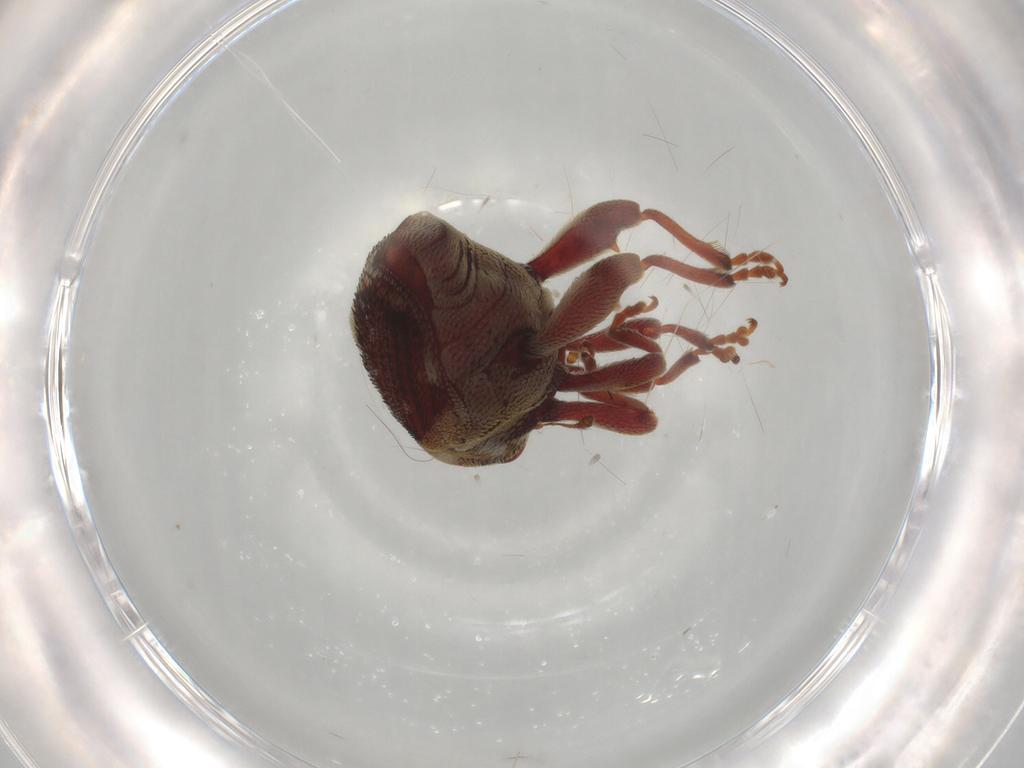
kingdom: Animalia
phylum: Arthropoda
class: Insecta
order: Coleoptera
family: Curculionidae
